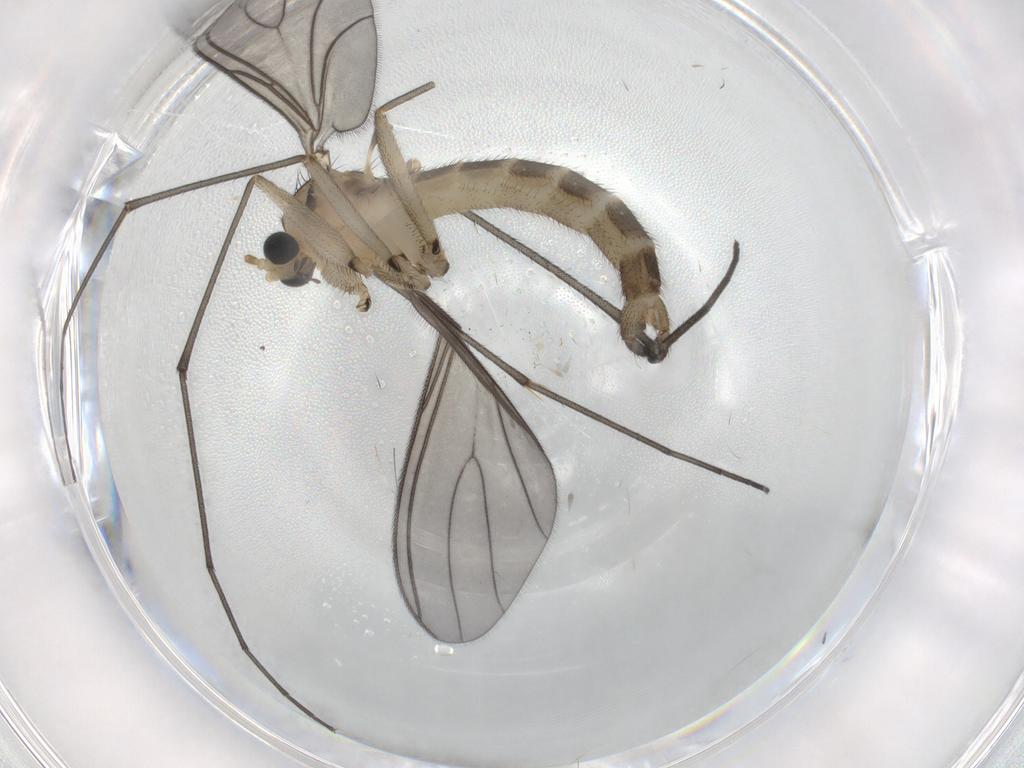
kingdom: Animalia
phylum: Arthropoda
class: Insecta
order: Diptera
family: Sciaridae
